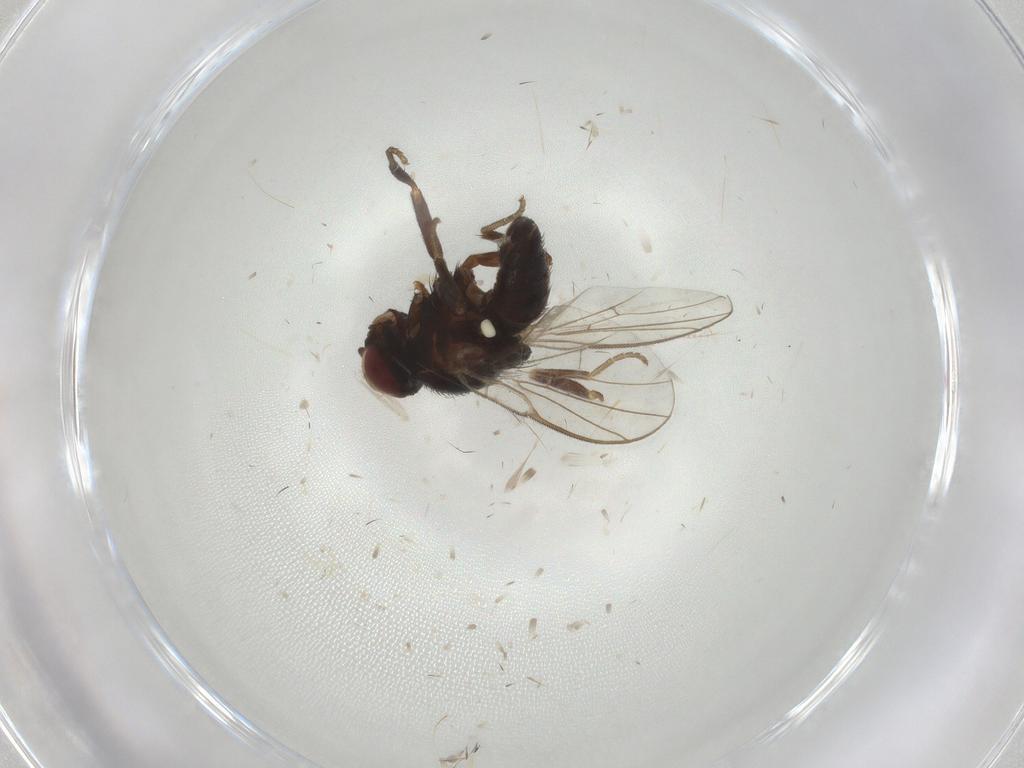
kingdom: Animalia
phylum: Arthropoda
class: Insecta
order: Diptera
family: Agromyzidae
